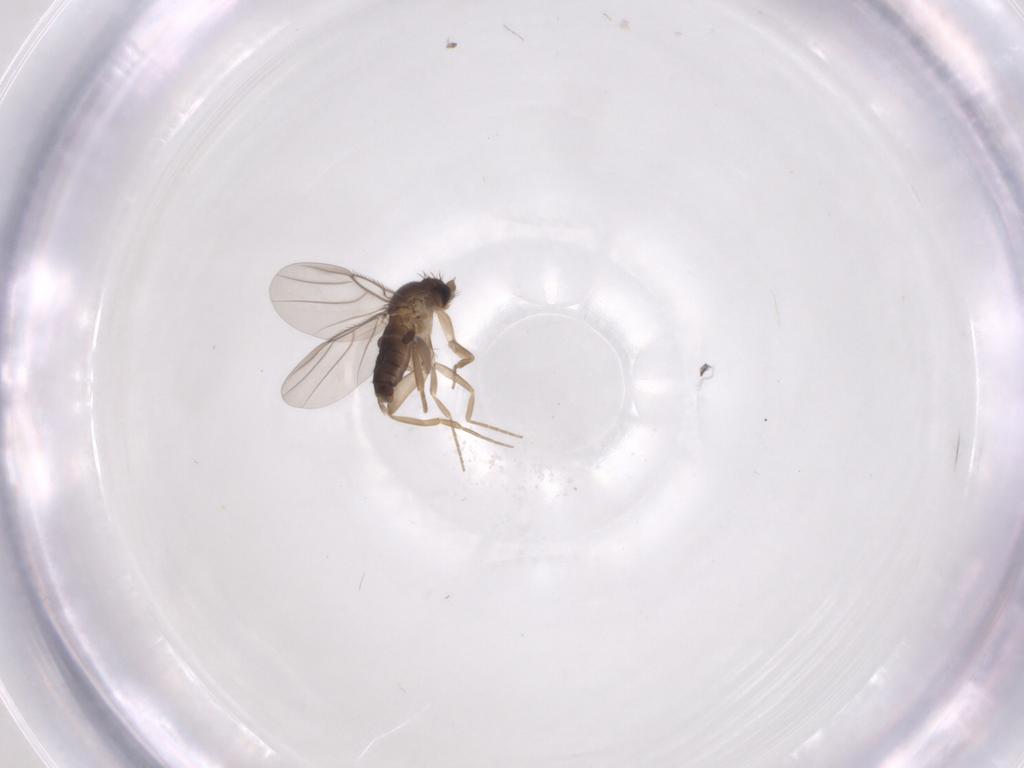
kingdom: Animalia
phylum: Arthropoda
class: Insecta
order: Diptera
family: Phoridae
